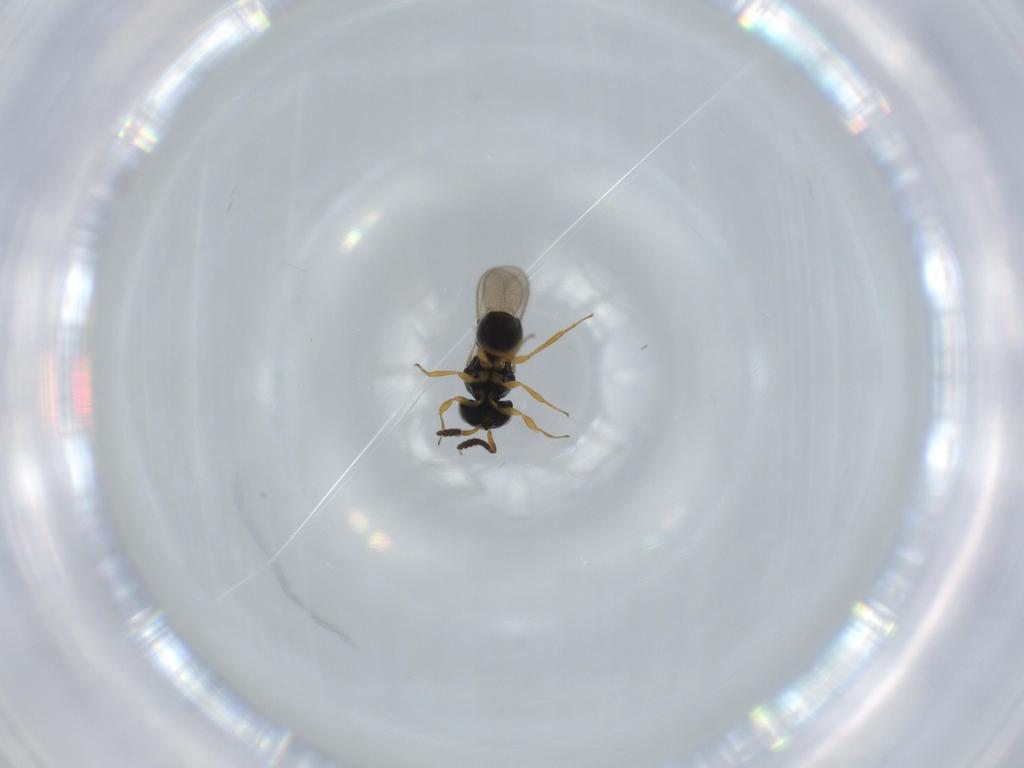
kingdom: Animalia
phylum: Arthropoda
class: Insecta
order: Hymenoptera
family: Scelionidae
